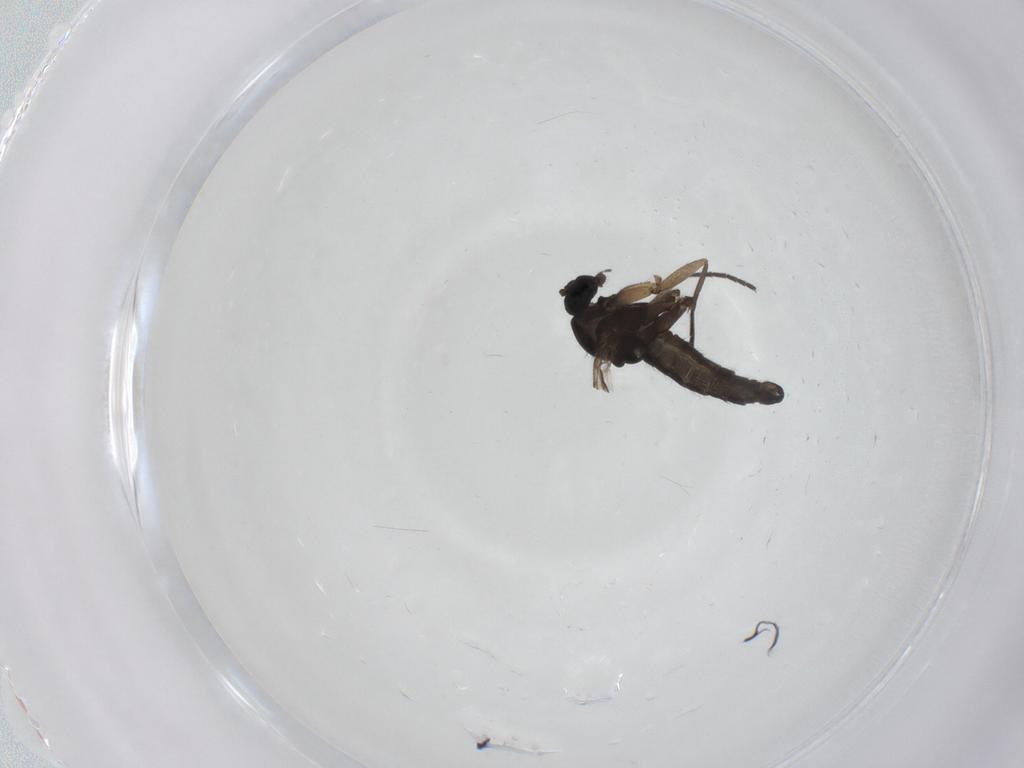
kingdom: Animalia
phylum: Arthropoda
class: Insecta
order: Diptera
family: Sciaridae
